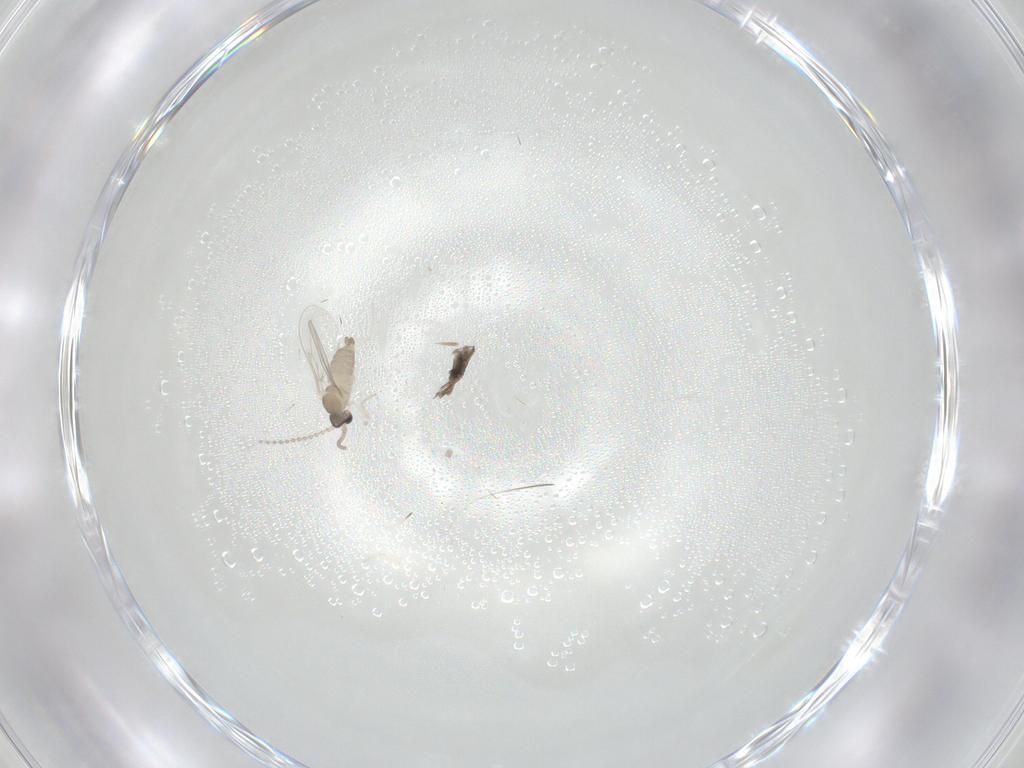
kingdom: Animalia
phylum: Arthropoda
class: Insecta
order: Diptera
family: Cecidomyiidae
